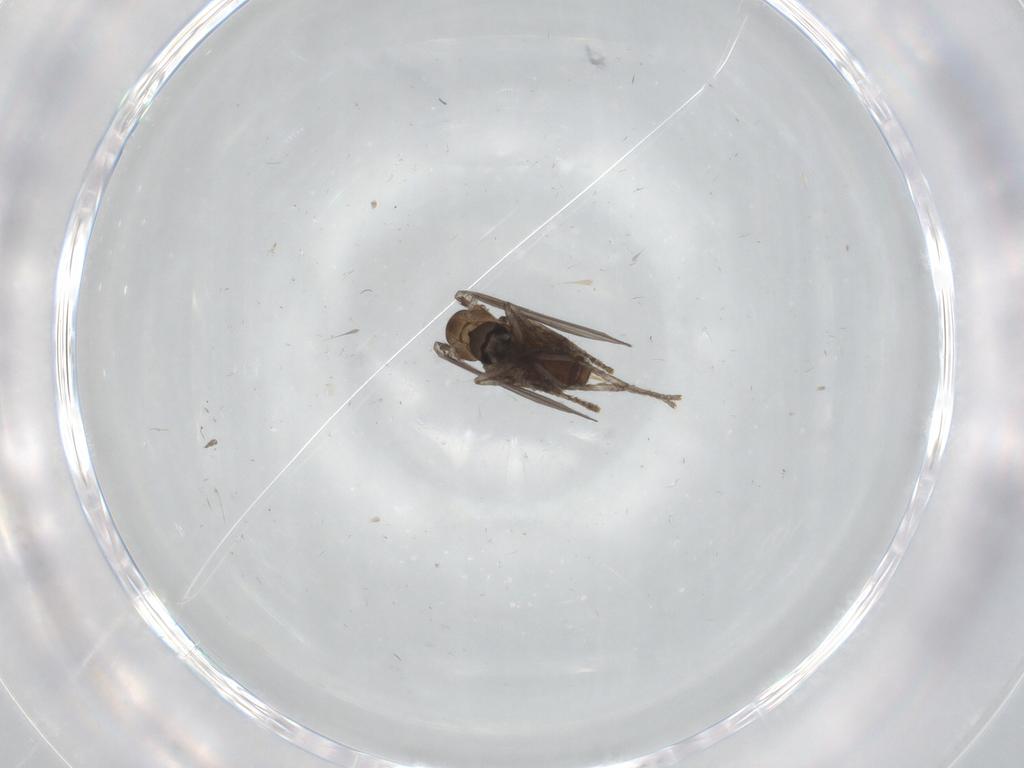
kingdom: Animalia
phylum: Arthropoda
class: Insecta
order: Diptera
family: Psychodidae
